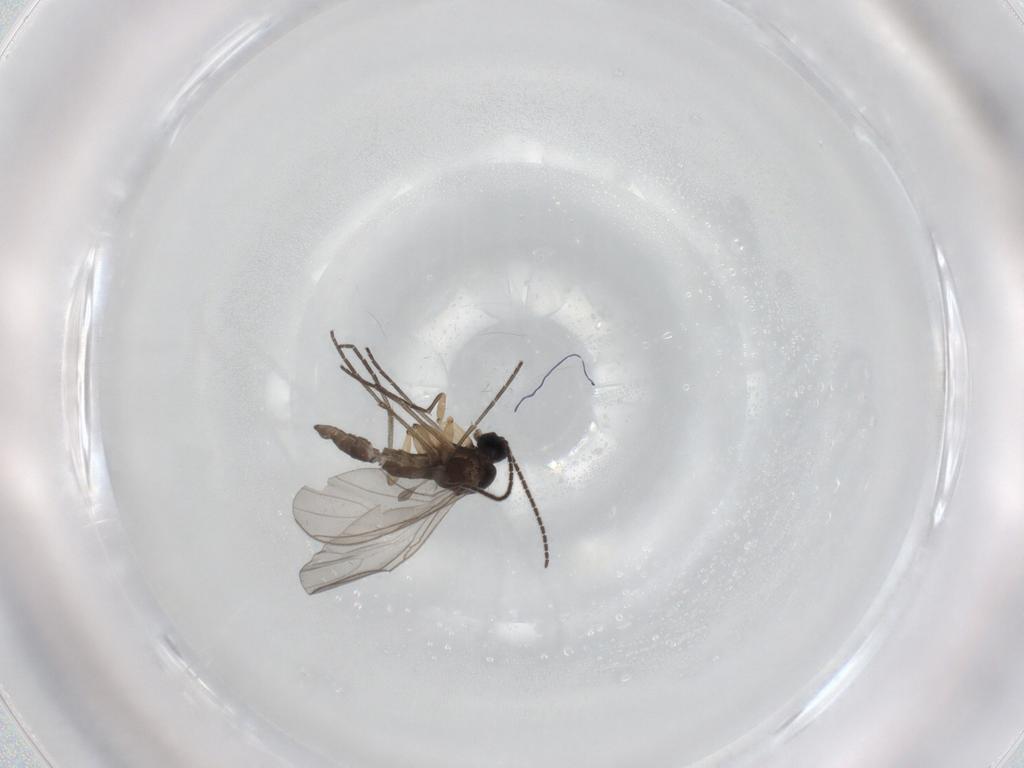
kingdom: Animalia
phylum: Arthropoda
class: Insecta
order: Diptera
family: Sciaridae
